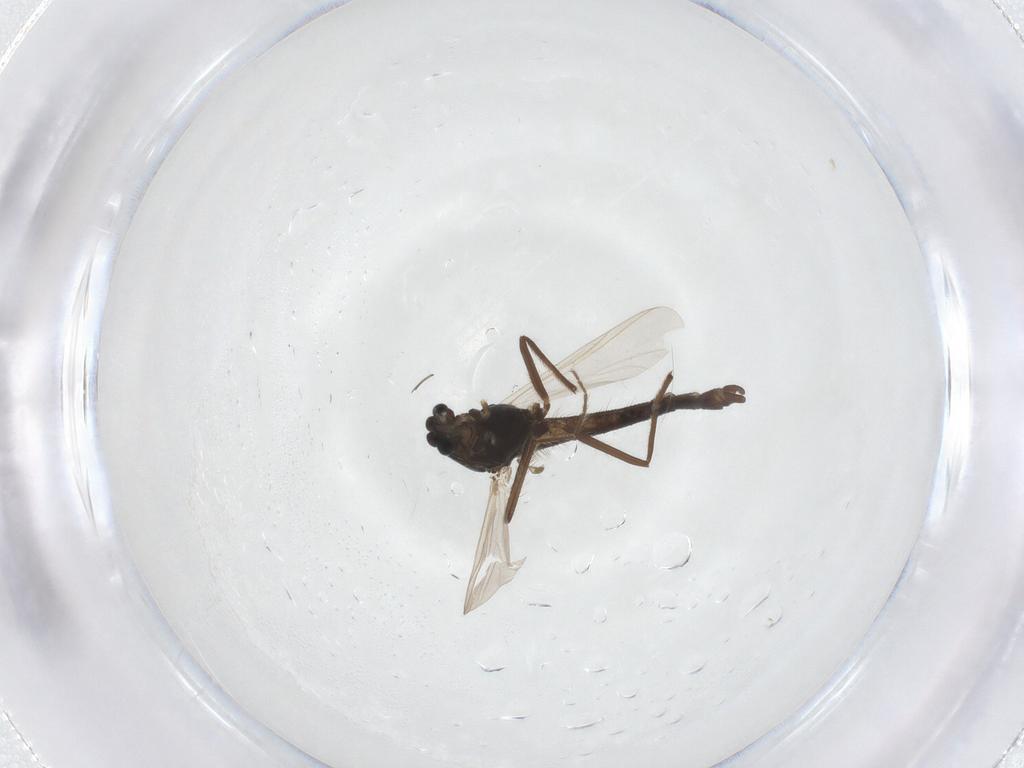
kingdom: Animalia
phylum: Arthropoda
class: Insecta
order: Diptera
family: Chironomidae
